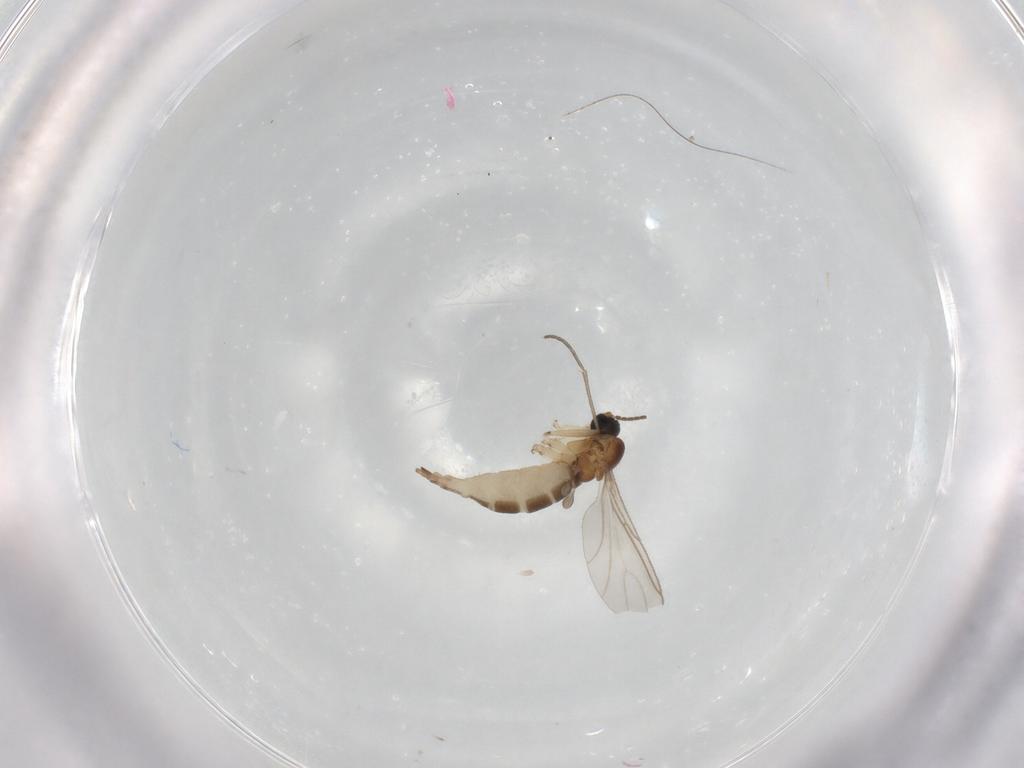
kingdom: Animalia
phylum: Arthropoda
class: Insecta
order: Diptera
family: Sciaridae
